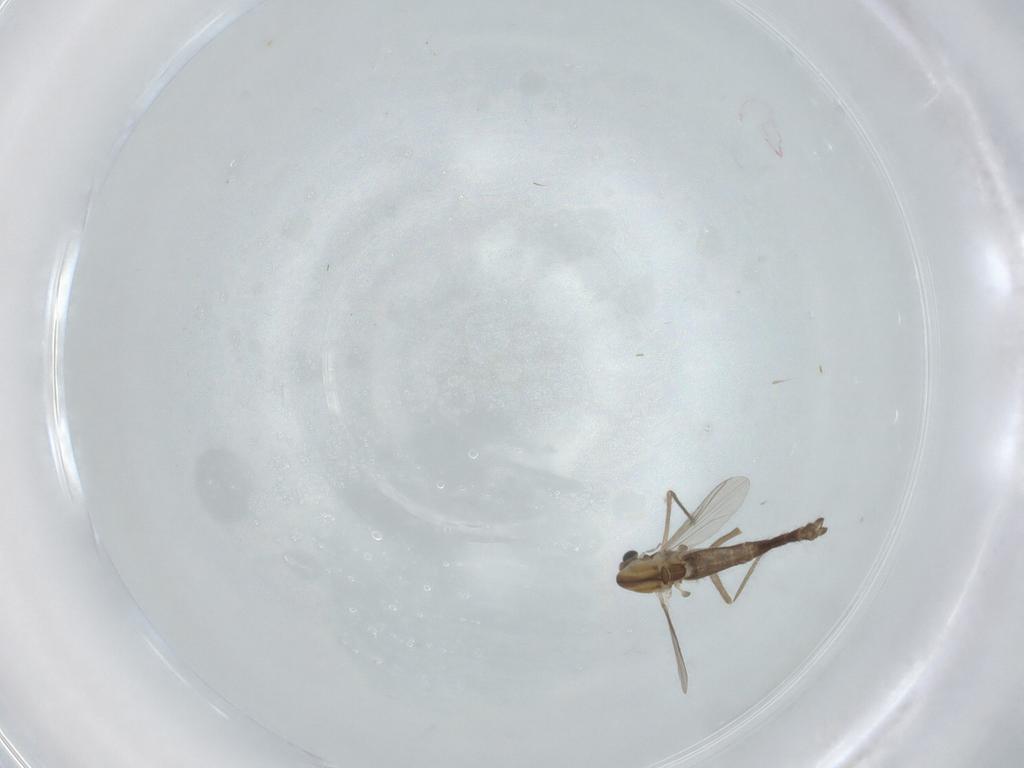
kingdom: Animalia
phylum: Arthropoda
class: Insecta
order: Diptera
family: Chironomidae
